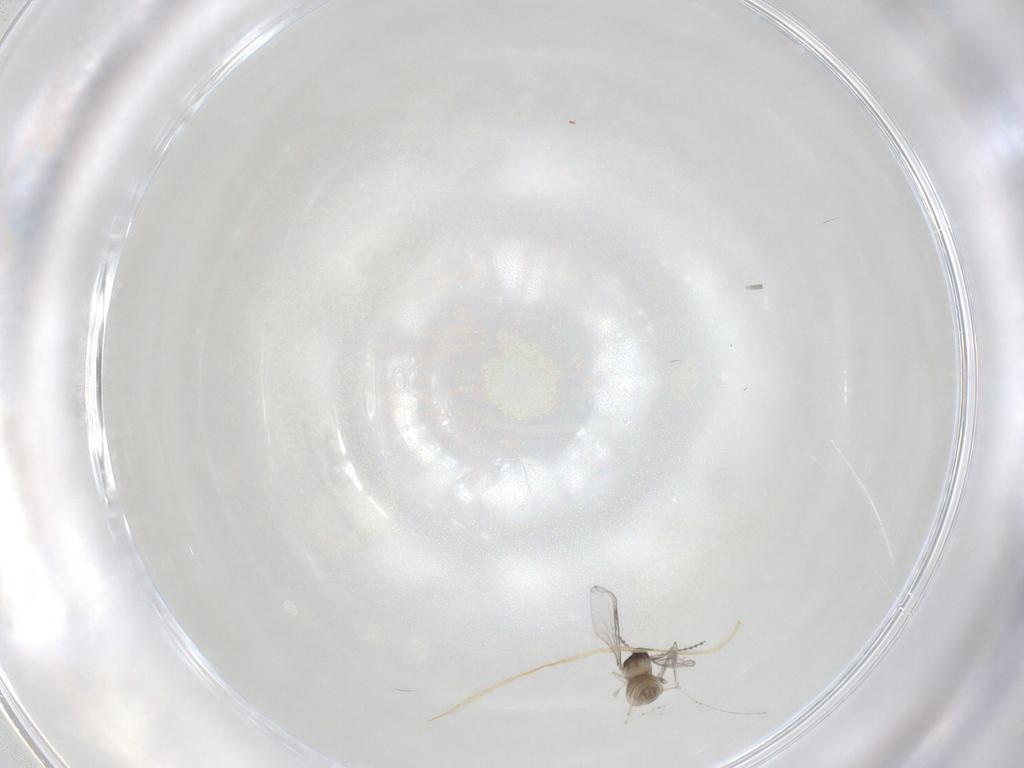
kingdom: Animalia
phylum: Arthropoda
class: Insecta
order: Diptera
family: Cecidomyiidae
